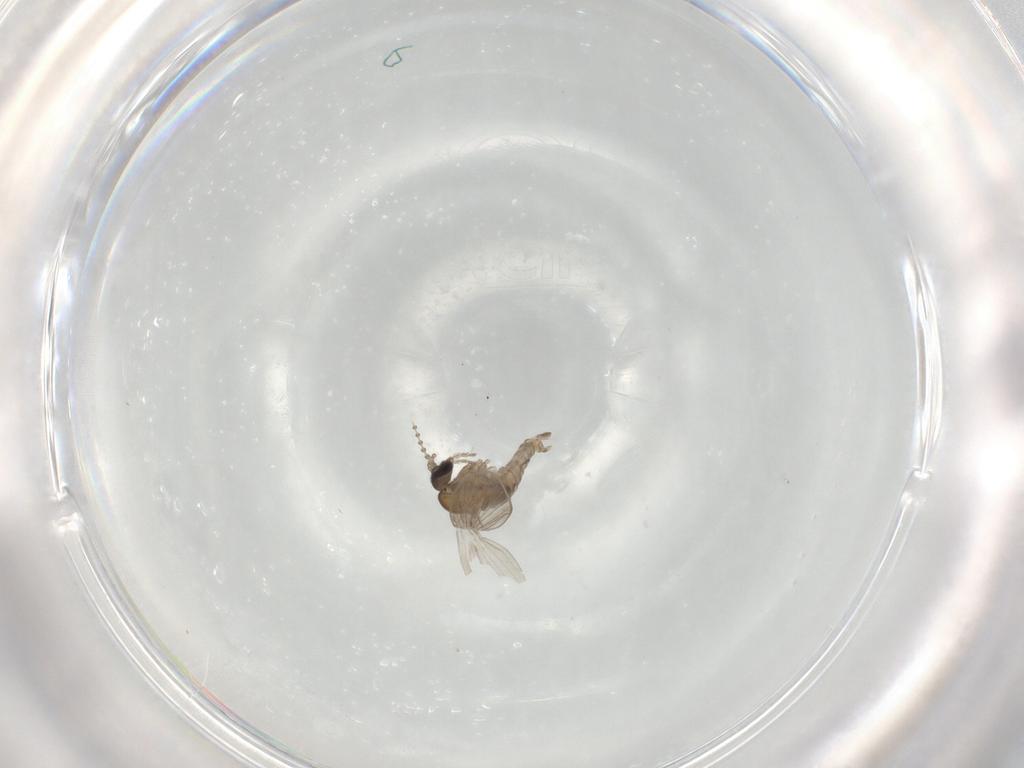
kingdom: Animalia
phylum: Arthropoda
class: Insecta
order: Diptera
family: Psychodidae
